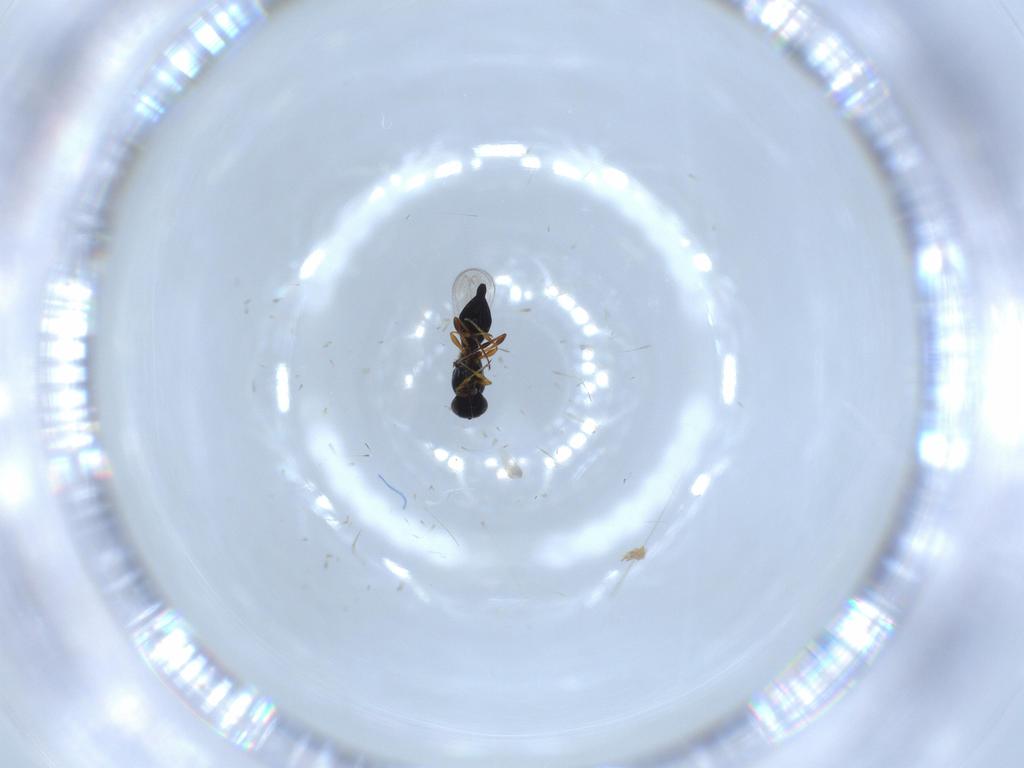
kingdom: Animalia
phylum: Arthropoda
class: Insecta
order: Hymenoptera
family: Platygastridae
